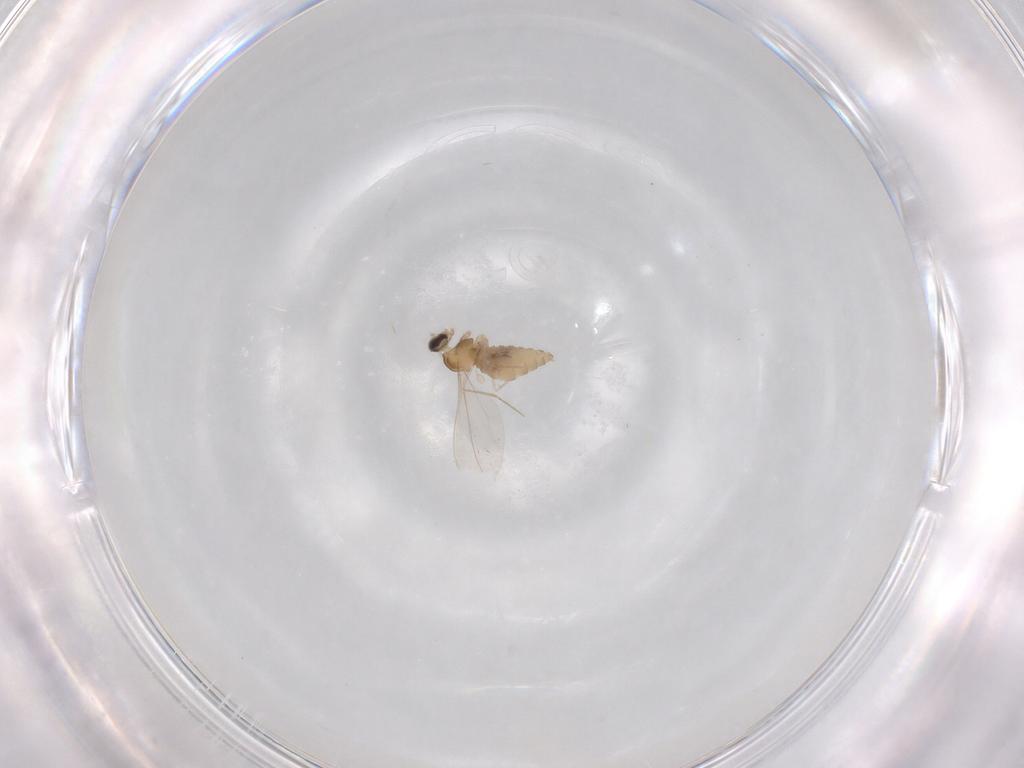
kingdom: Animalia
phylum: Arthropoda
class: Insecta
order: Diptera
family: Cecidomyiidae
